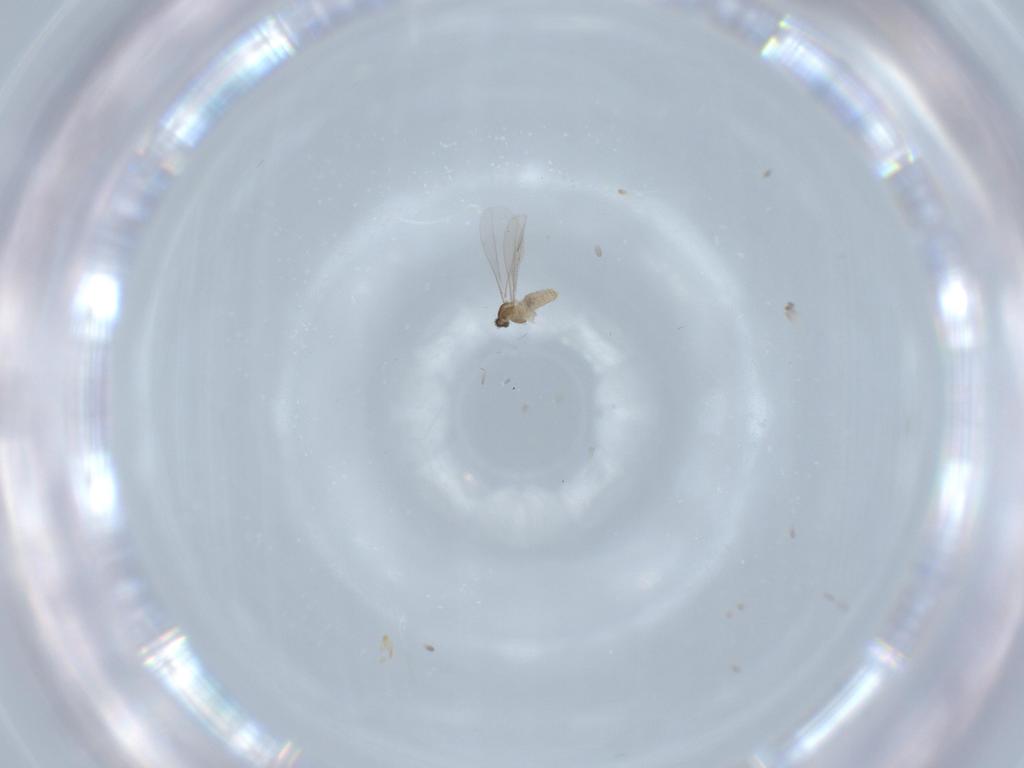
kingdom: Animalia
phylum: Arthropoda
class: Insecta
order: Diptera
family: Cecidomyiidae
